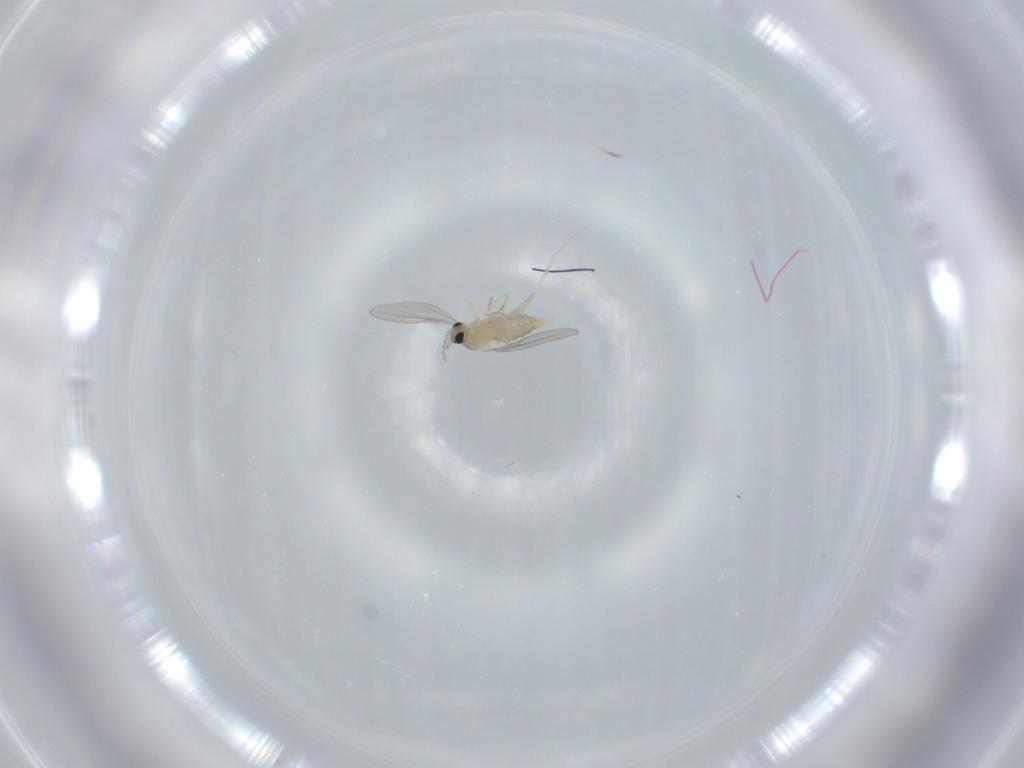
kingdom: Animalia
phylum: Arthropoda
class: Insecta
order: Diptera
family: Cecidomyiidae
